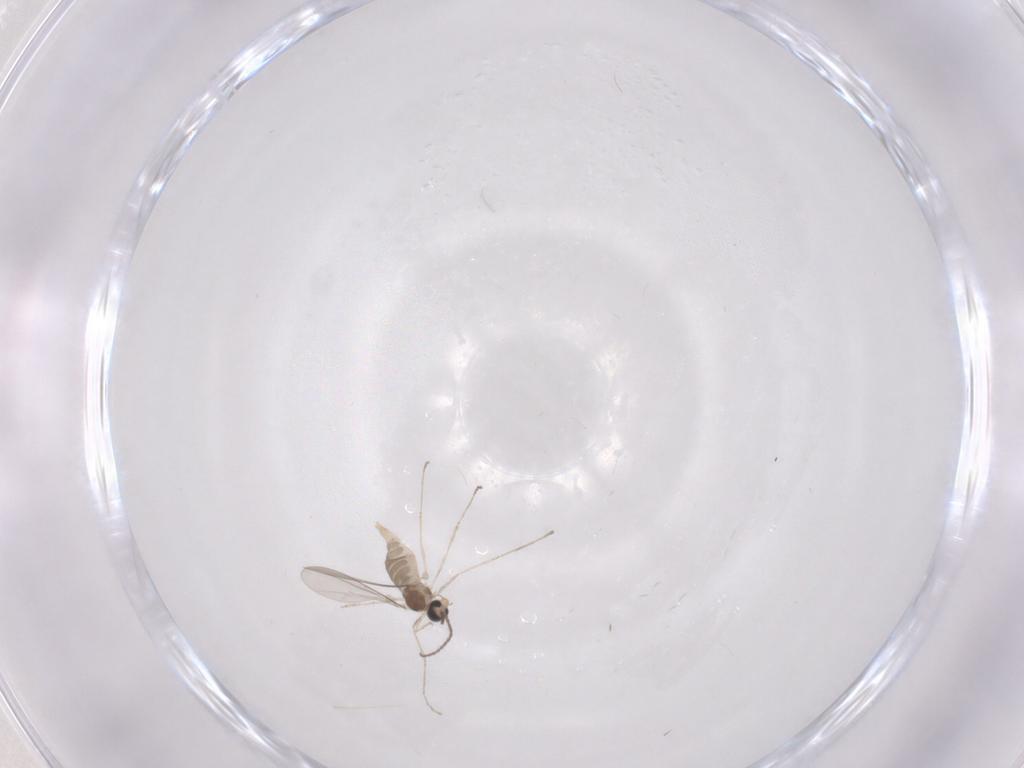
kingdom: Animalia
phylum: Arthropoda
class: Insecta
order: Diptera
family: Cecidomyiidae
